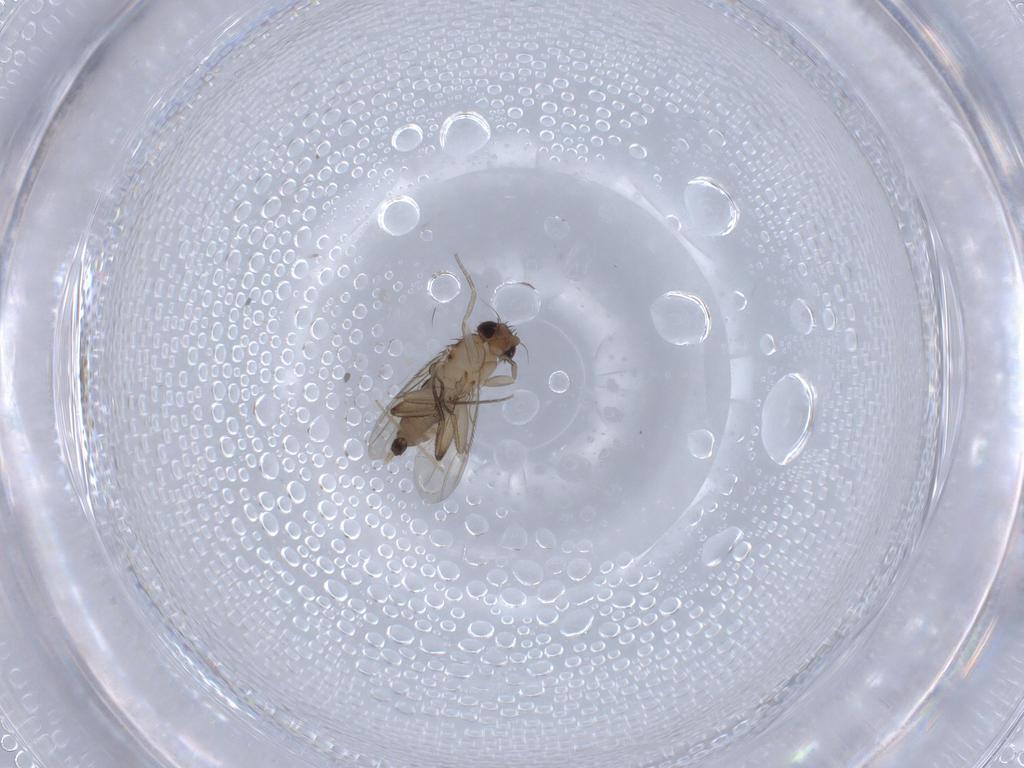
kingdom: Animalia
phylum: Arthropoda
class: Insecta
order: Diptera
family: Chironomidae
